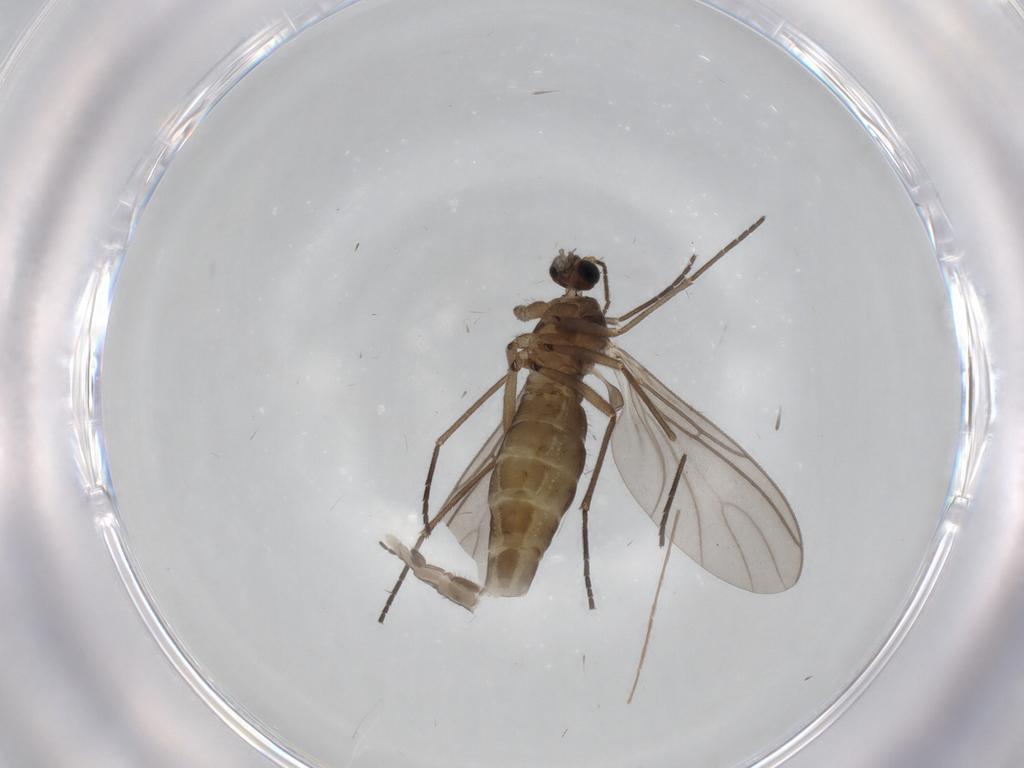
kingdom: Animalia
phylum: Arthropoda
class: Insecta
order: Diptera
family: Chironomidae
